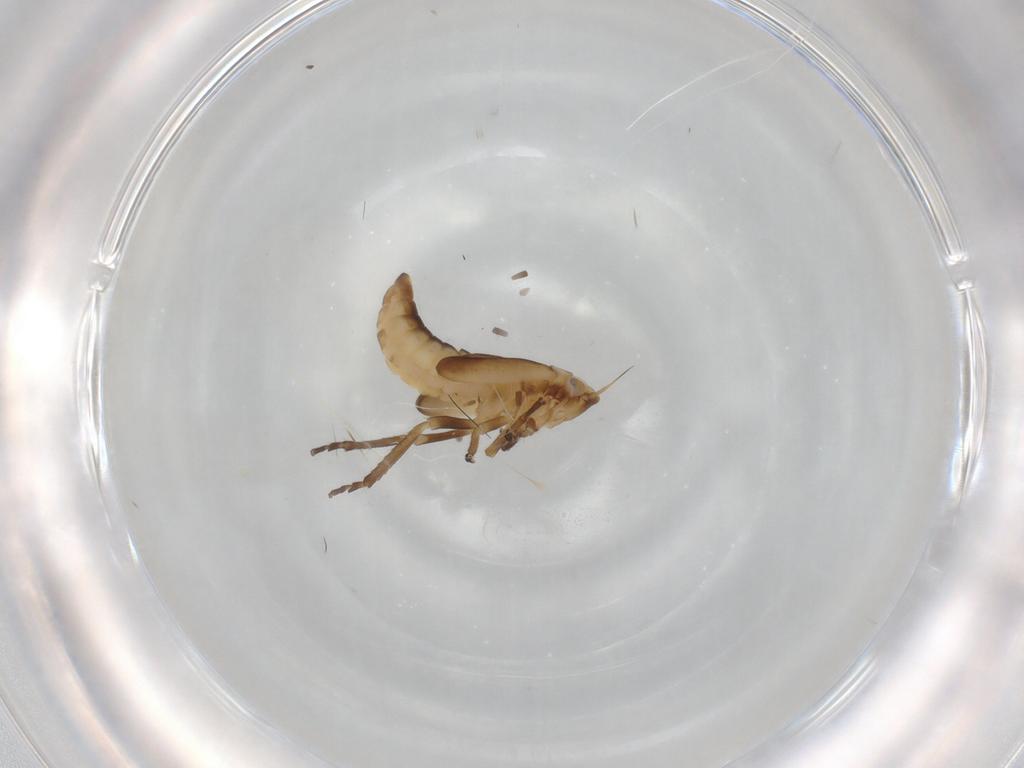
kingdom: Animalia
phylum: Arthropoda
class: Insecta
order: Hemiptera
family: Cicadellidae
